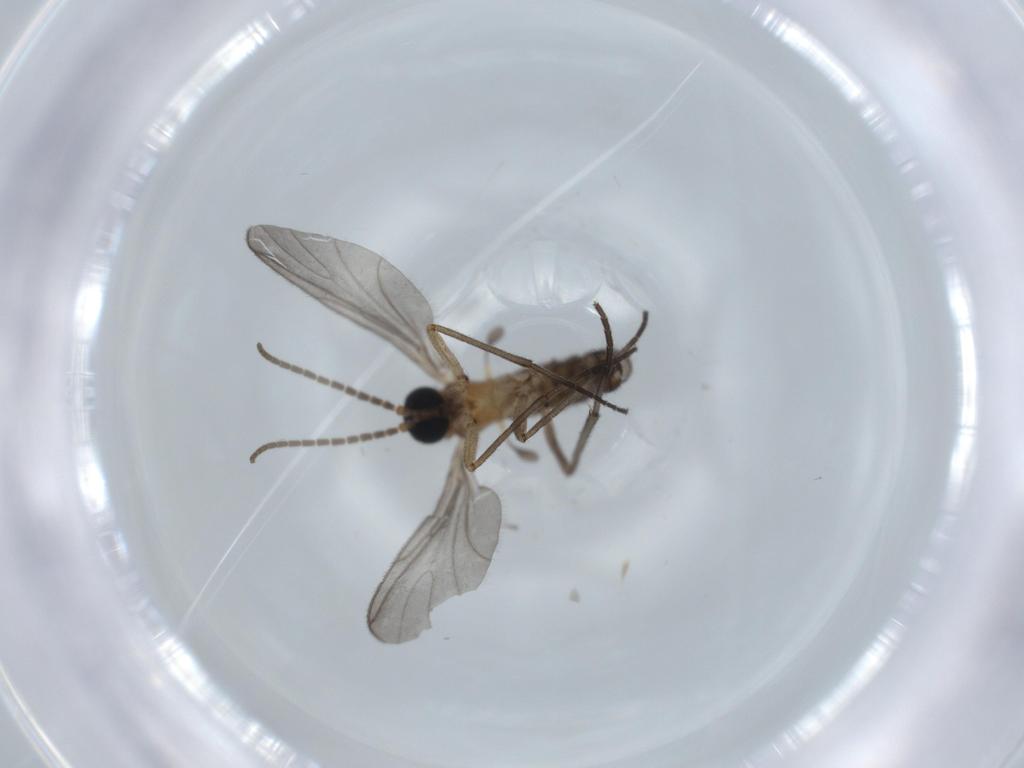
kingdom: Animalia
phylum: Arthropoda
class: Insecta
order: Diptera
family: Sciaridae
